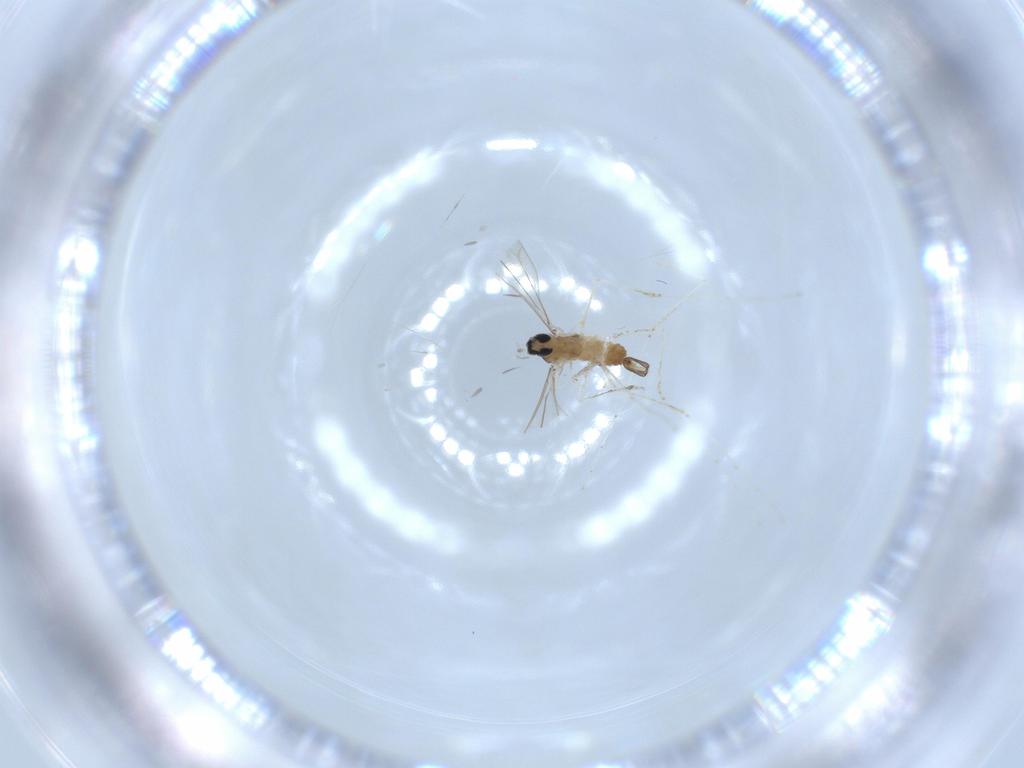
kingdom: Animalia
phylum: Arthropoda
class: Insecta
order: Diptera
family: Cecidomyiidae
